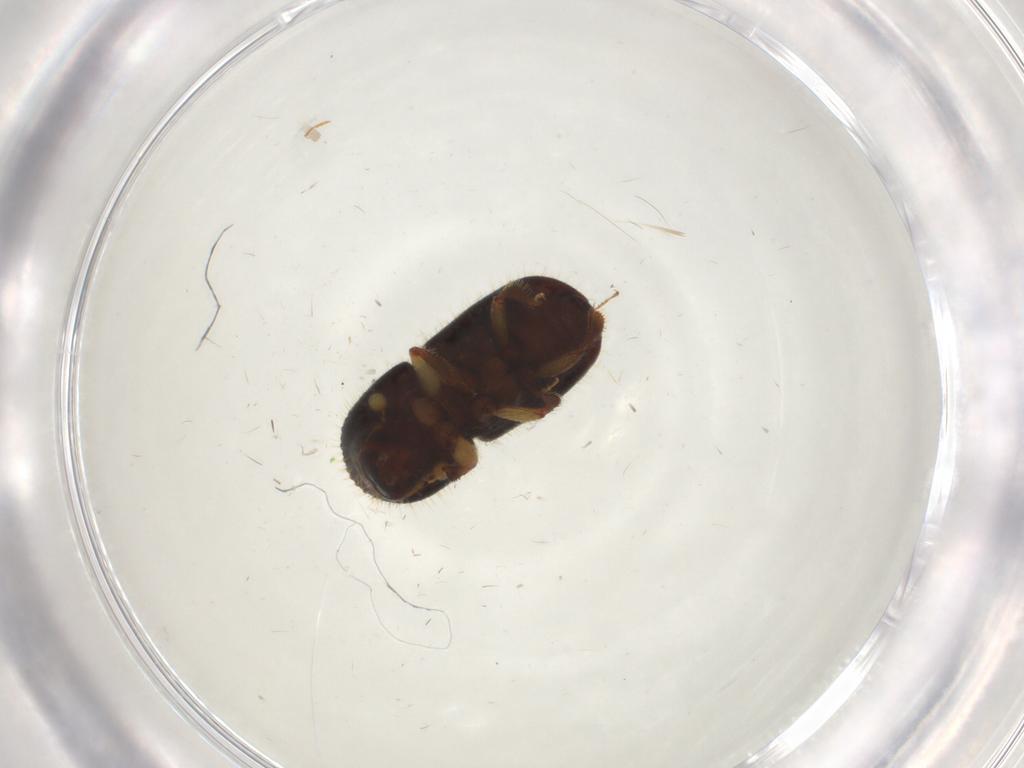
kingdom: Animalia
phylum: Arthropoda
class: Insecta
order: Coleoptera
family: Curculionidae
